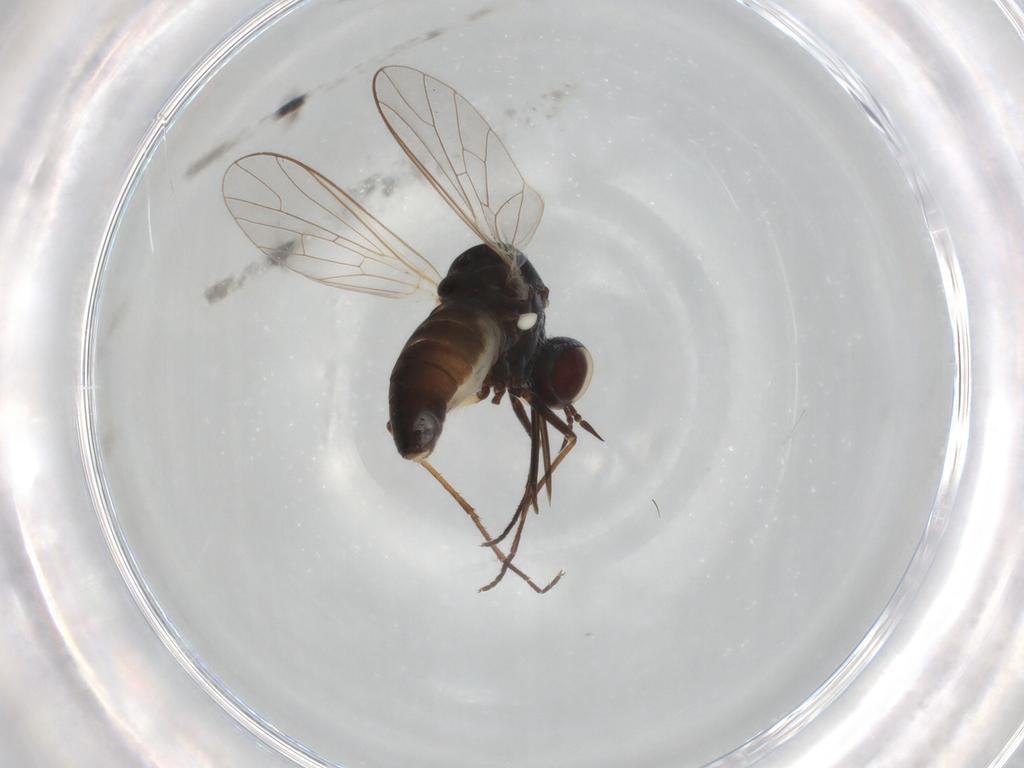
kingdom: Animalia
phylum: Arthropoda
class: Insecta
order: Diptera
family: Bombyliidae
